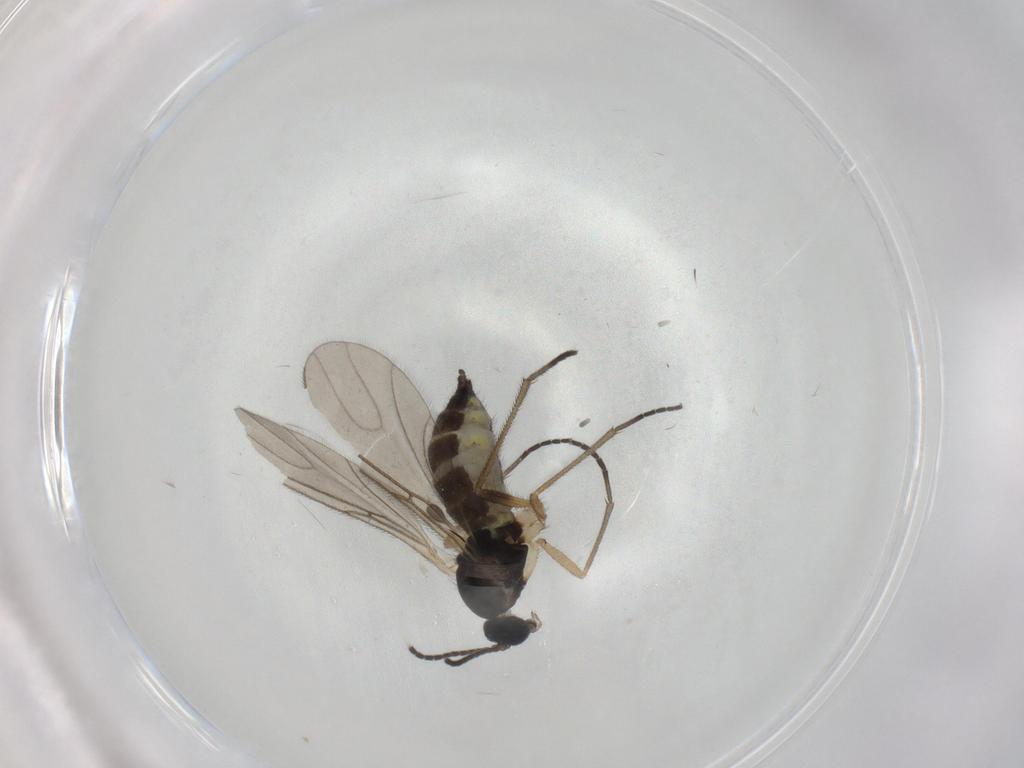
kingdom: Animalia
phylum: Arthropoda
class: Insecta
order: Diptera
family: Sciaridae
